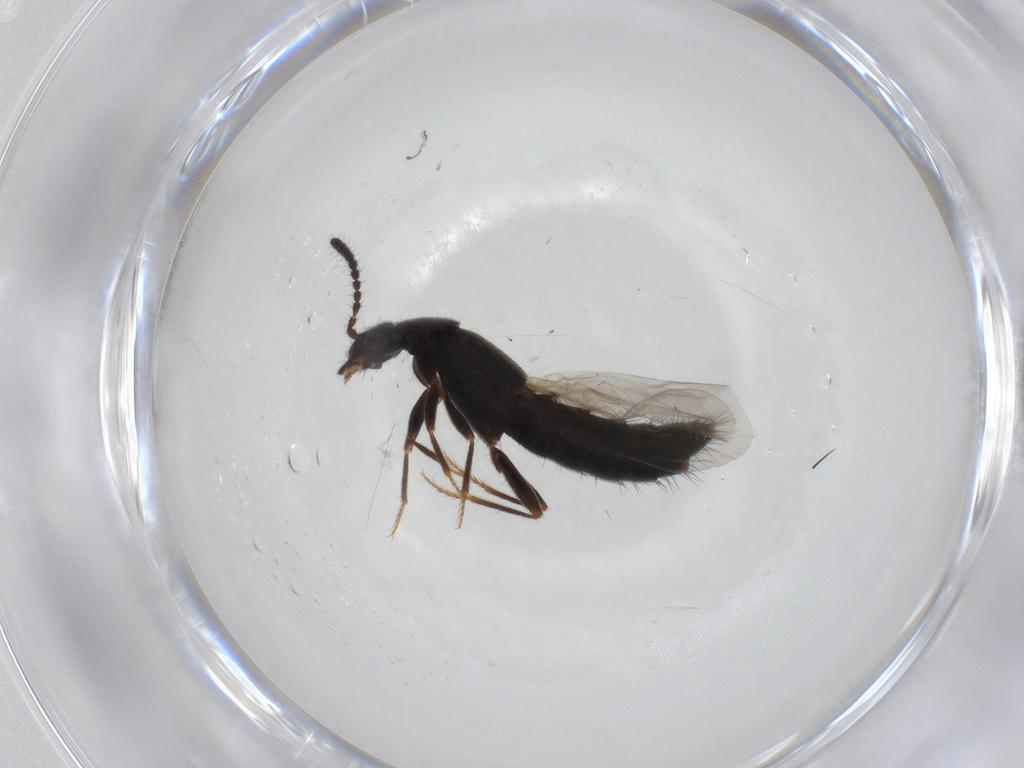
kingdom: Animalia
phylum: Arthropoda
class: Insecta
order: Coleoptera
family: Staphylinidae
